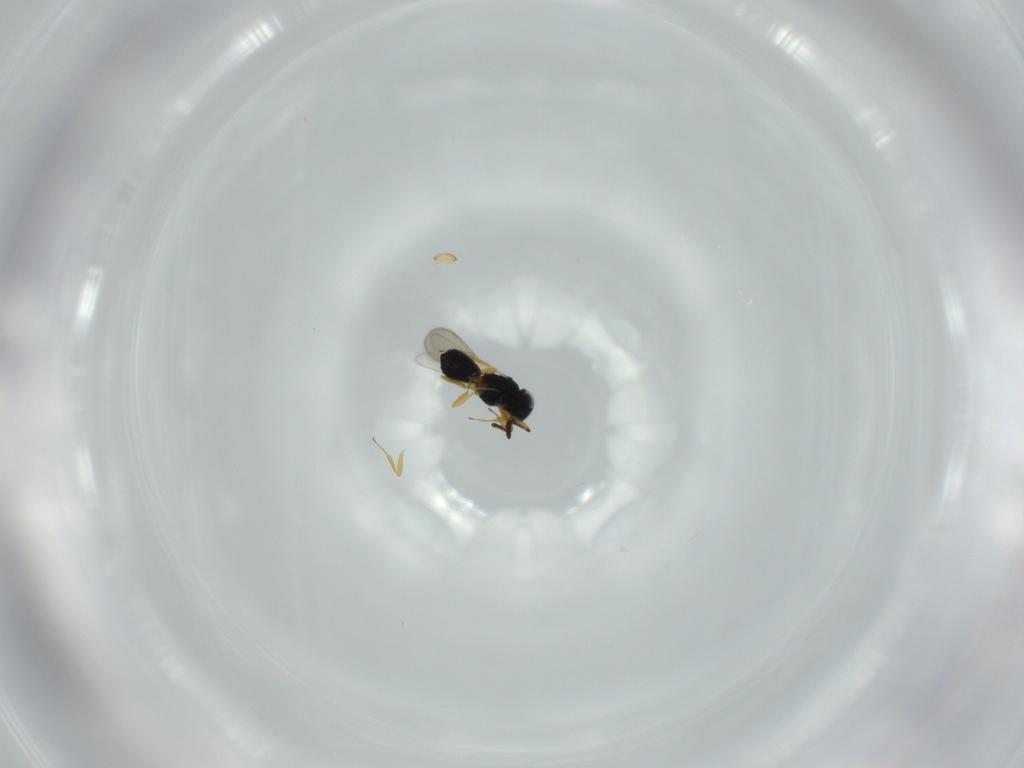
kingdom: Animalia
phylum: Arthropoda
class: Insecta
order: Hymenoptera
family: Scelionidae
